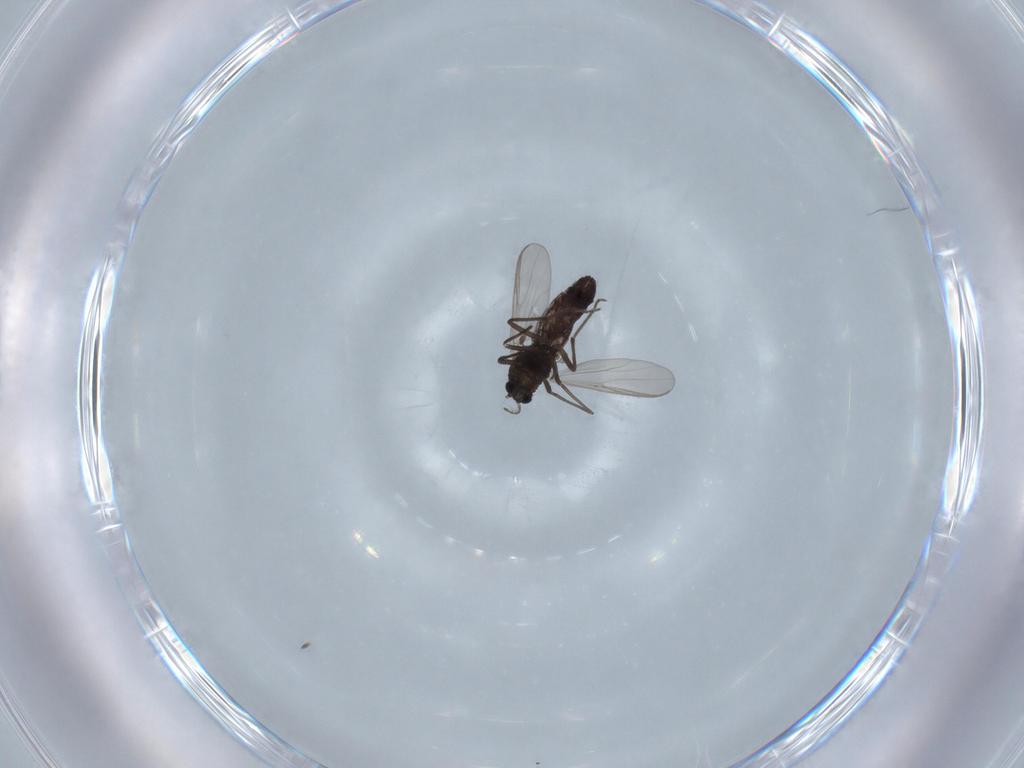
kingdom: Animalia
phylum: Arthropoda
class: Insecta
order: Diptera
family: Chironomidae
